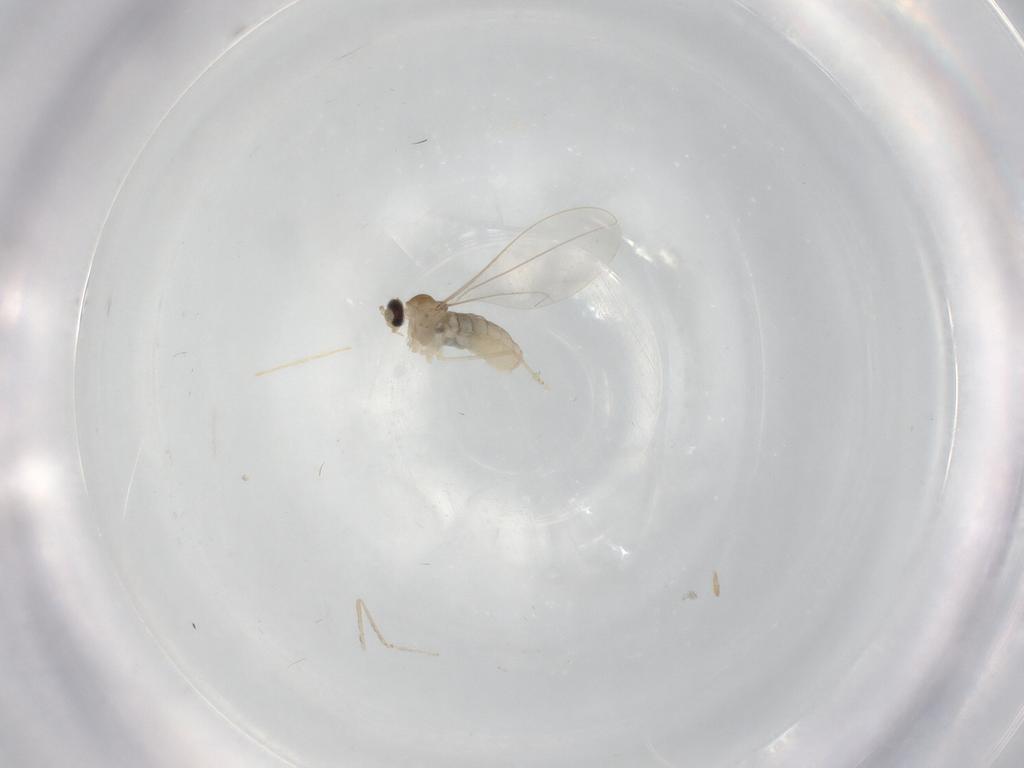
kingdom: Animalia
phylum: Arthropoda
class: Insecta
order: Diptera
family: Cecidomyiidae
